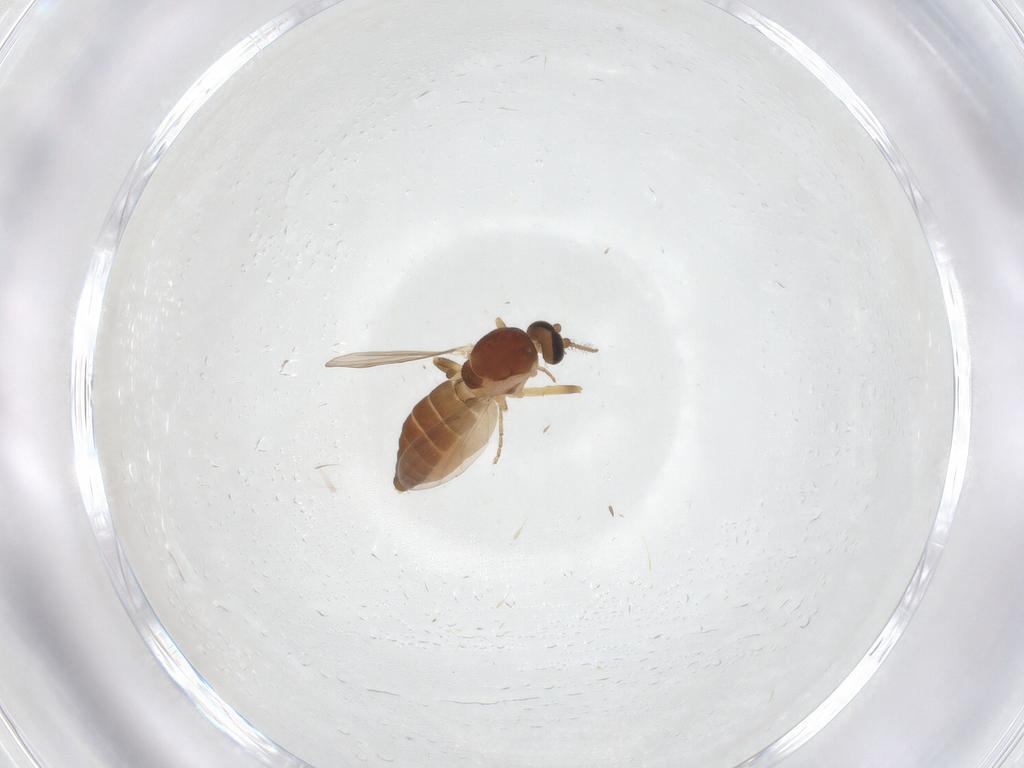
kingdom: Animalia
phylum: Arthropoda
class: Insecta
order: Diptera
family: Ceratopogonidae
